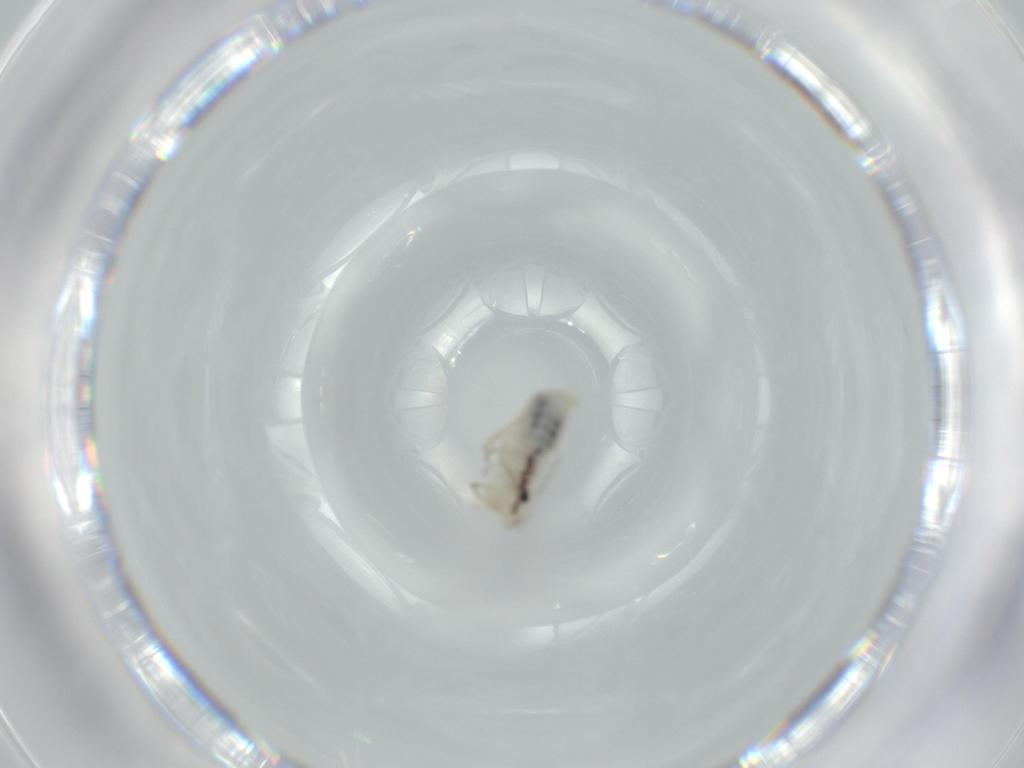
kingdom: Animalia
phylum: Arthropoda
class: Insecta
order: Psocodea
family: Pseudocaeciliidae
